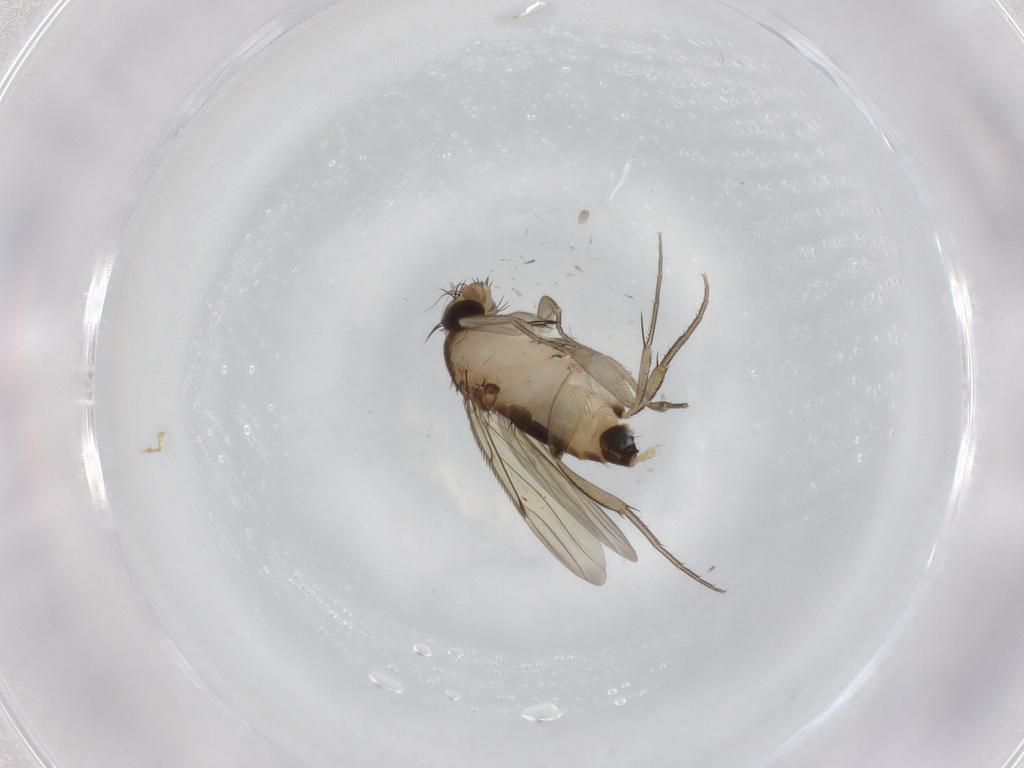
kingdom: Animalia
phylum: Arthropoda
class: Insecta
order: Diptera
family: Phoridae
